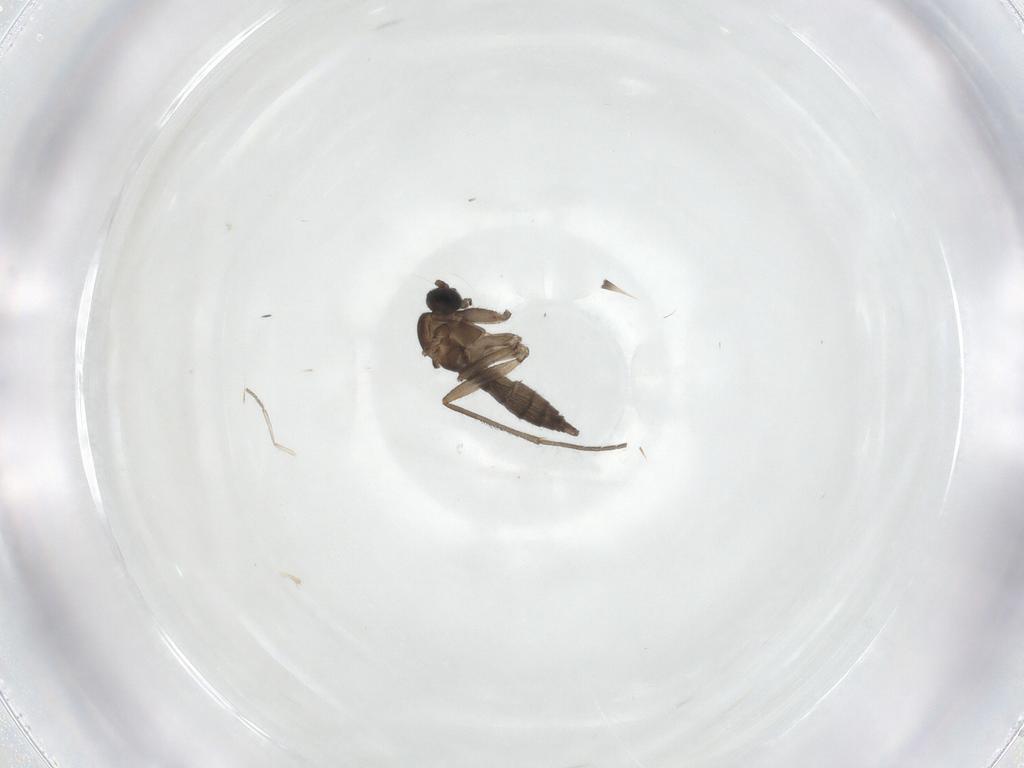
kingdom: Animalia
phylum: Arthropoda
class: Insecta
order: Diptera
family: Sciaridae
